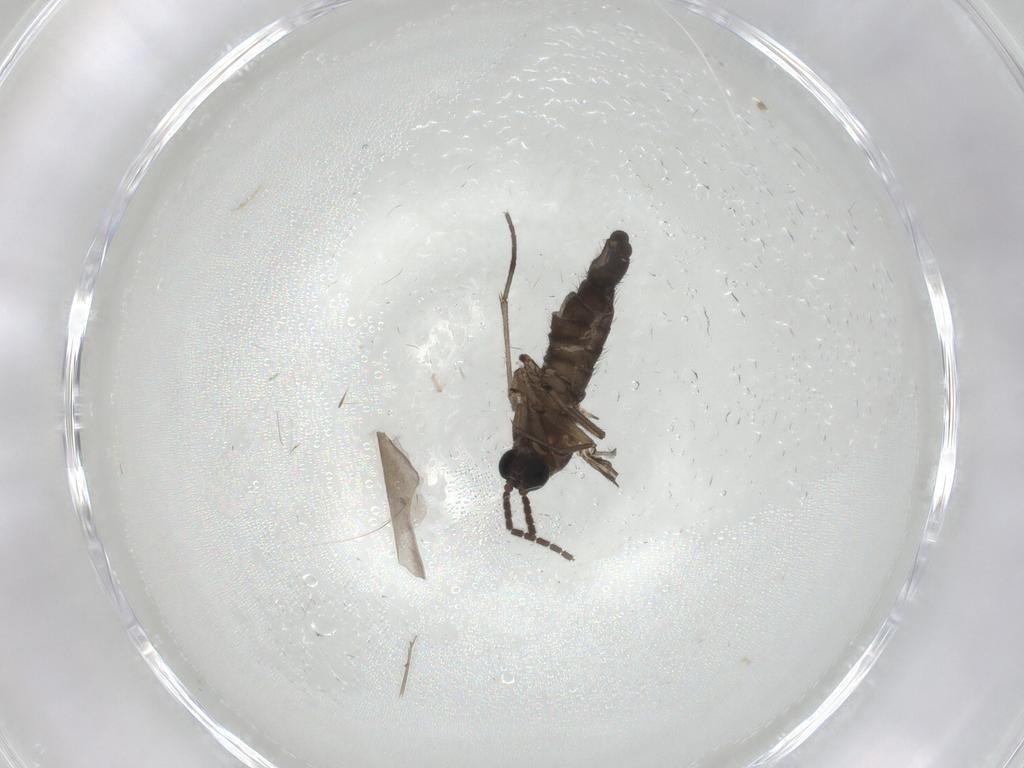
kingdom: Animalia
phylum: Arthropoda
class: Insecta
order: Diptera
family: Sciaridae
